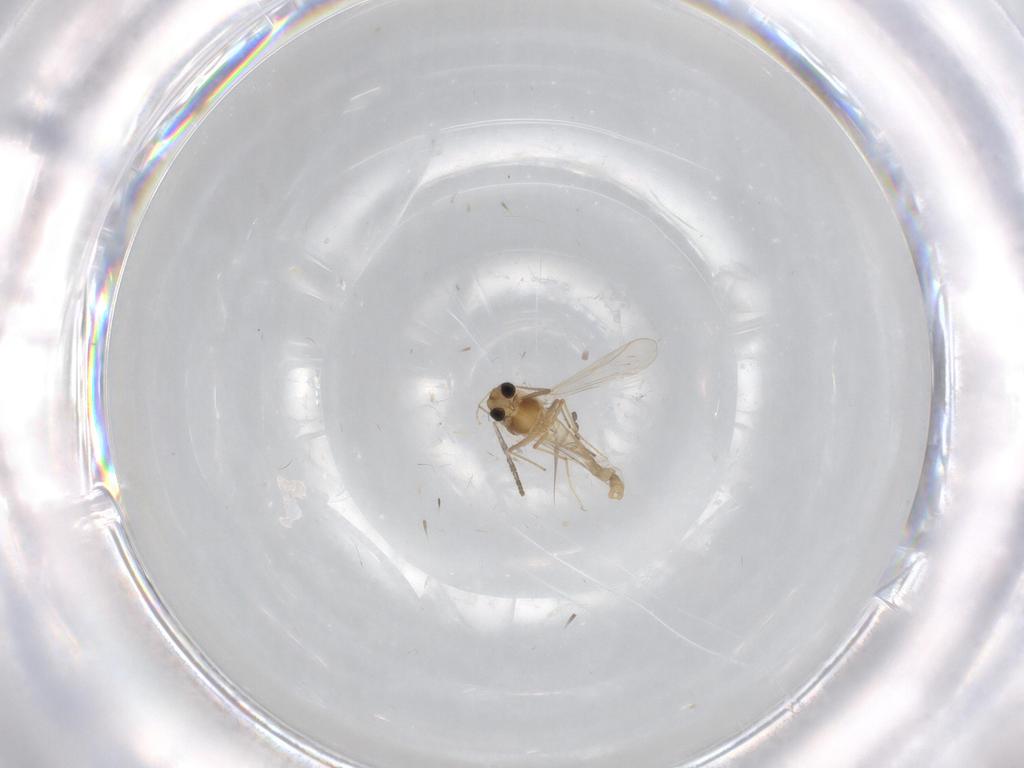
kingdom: Animalia
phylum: Arthropoda
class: Insecta
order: Diptera
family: Chironomidae
